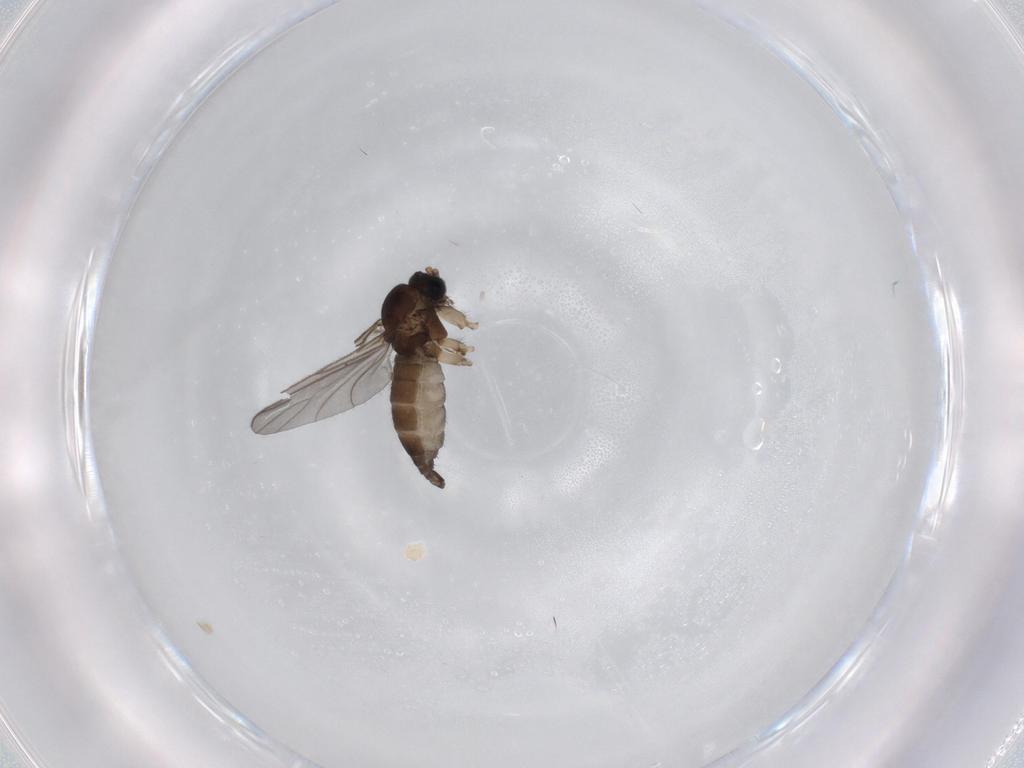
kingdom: Animalia
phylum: Arthropoda
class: Insecta
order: Diptera
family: Sciaridae
